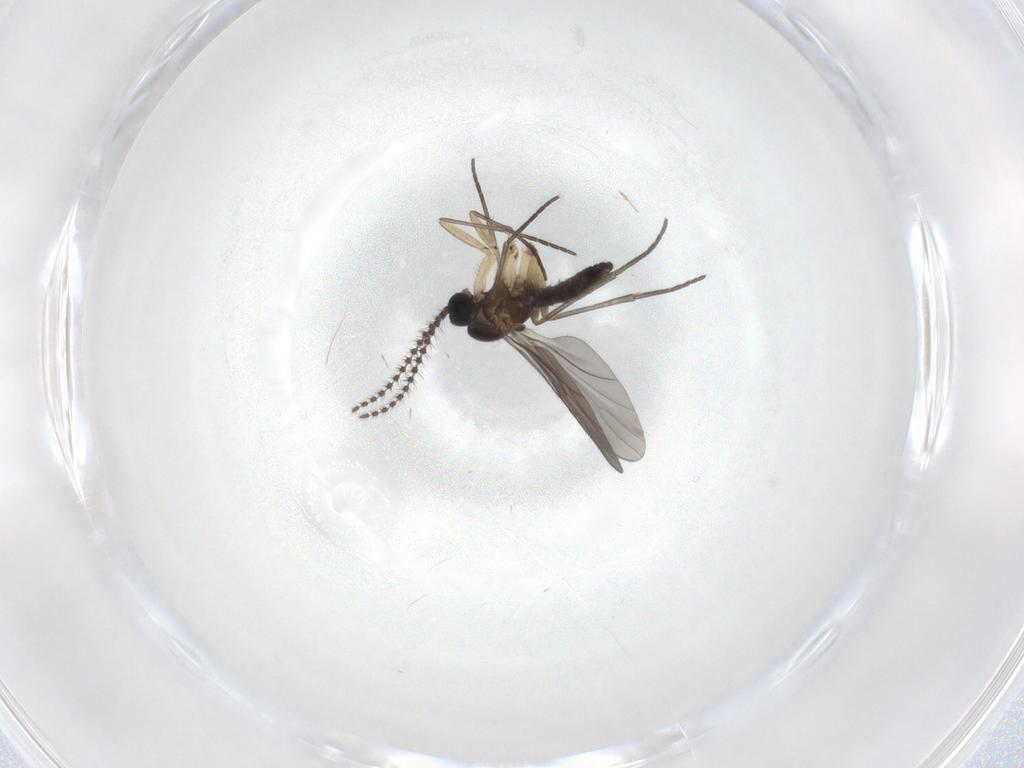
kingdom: Animalia
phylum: Arthropoda
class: Insecta
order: Diptera
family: Sciaridae
